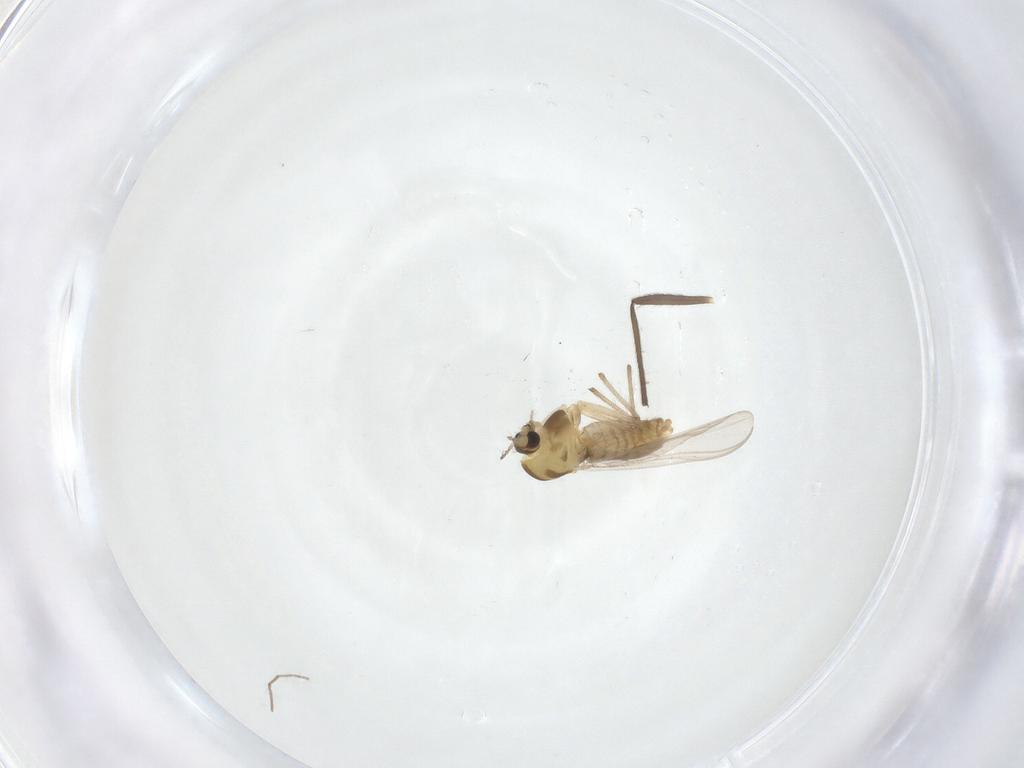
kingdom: Animalia
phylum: Arthropoda
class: Insecta
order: Diptera
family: Chironomidae
